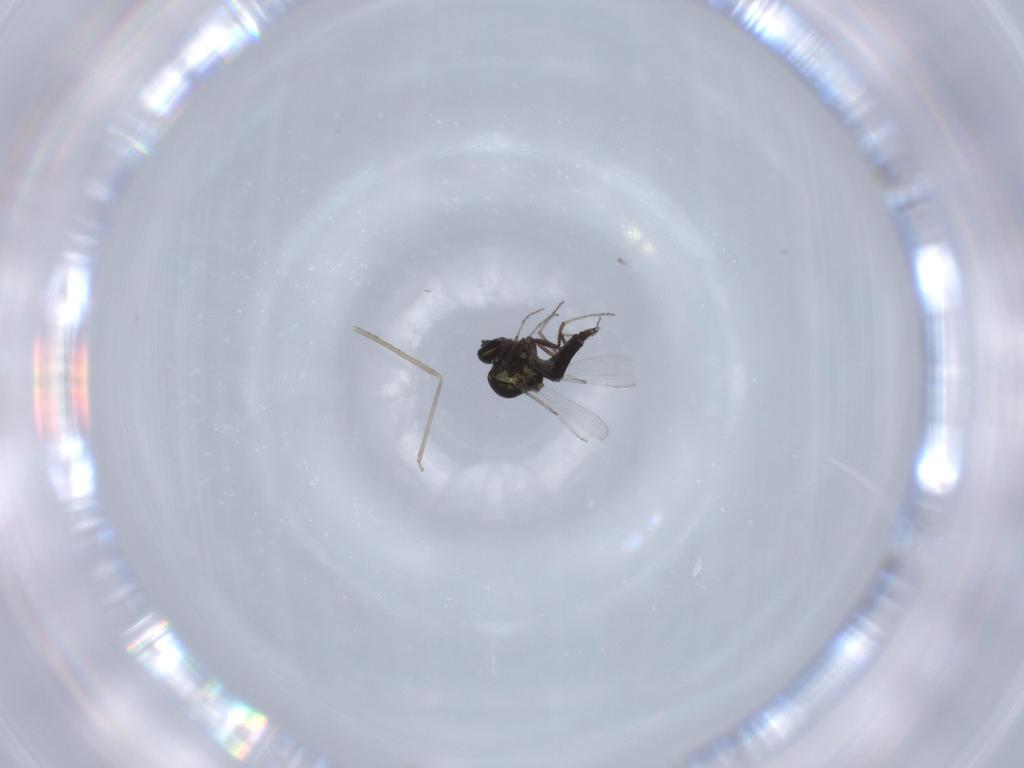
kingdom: Animalia
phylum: Arthropoda
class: Insecta
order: Diptera
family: Ceratopogonidae
